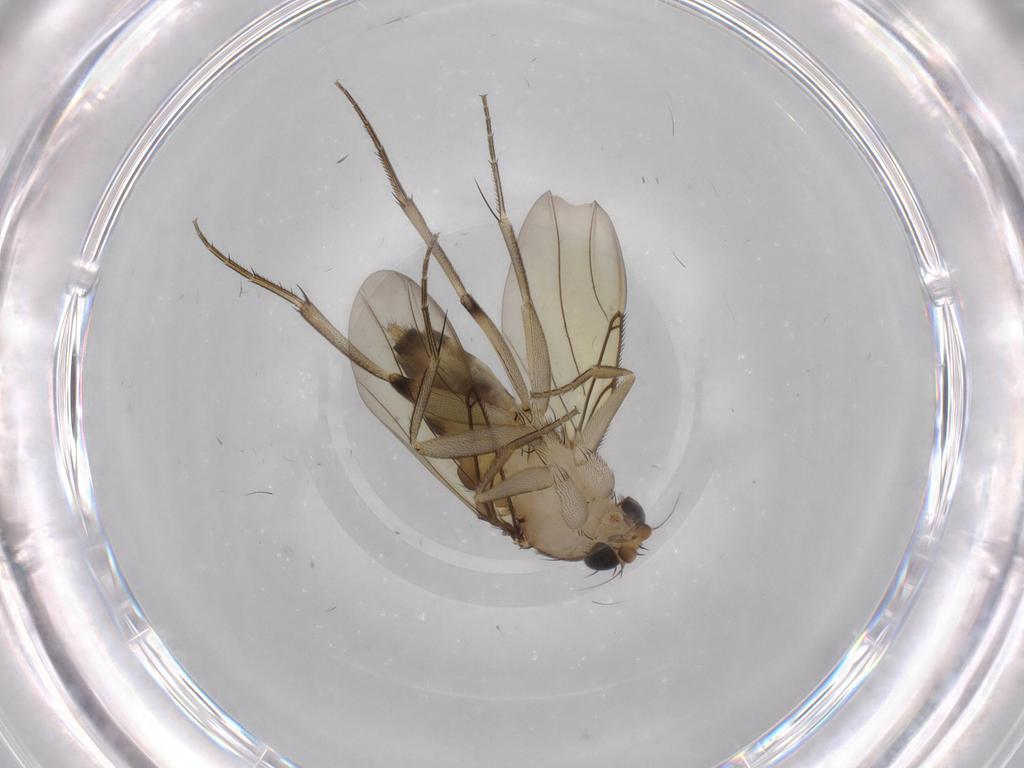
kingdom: Animalia
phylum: Arthropoda
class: Insecta
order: Diptera
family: Phoridae
